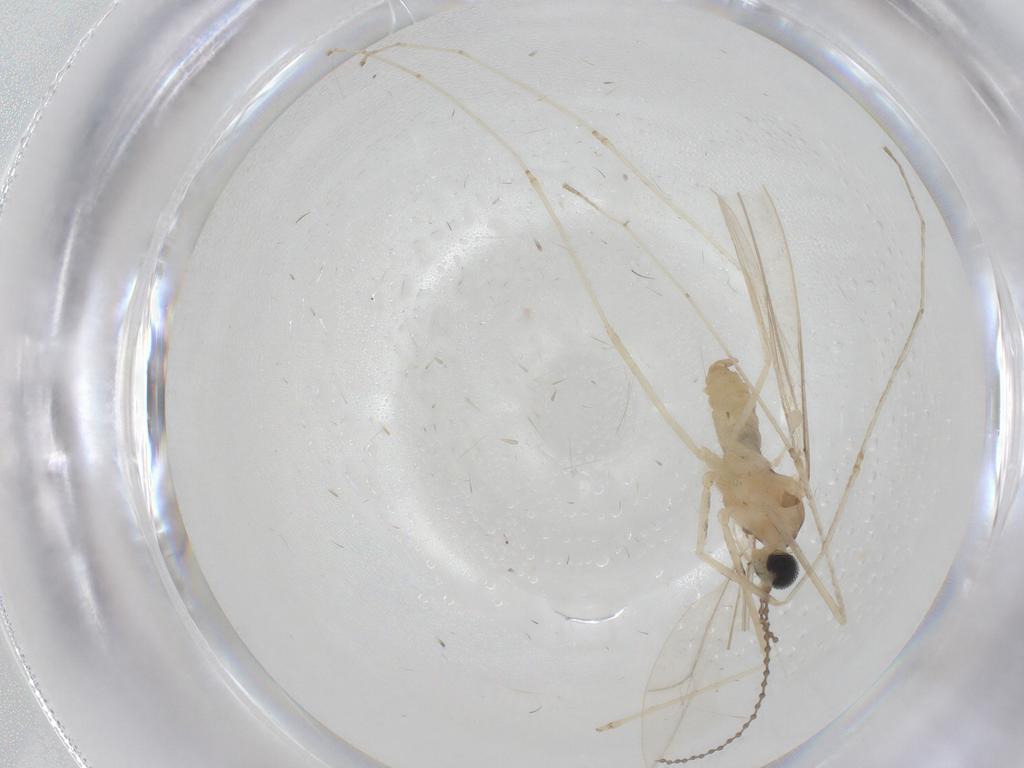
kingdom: Animalia
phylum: Arthropoda
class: Insecta
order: Diptera
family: Cecidomyiidae
